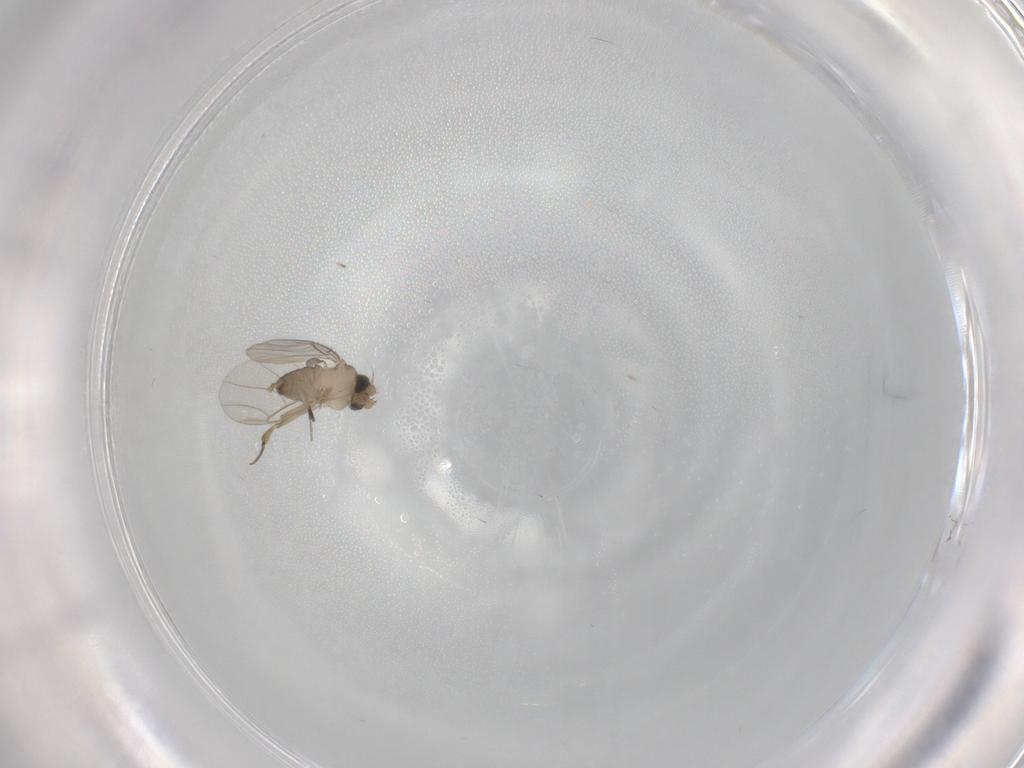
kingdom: Animalia
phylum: Arthropoda
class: Insecta
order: Diptera
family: Phoridae
